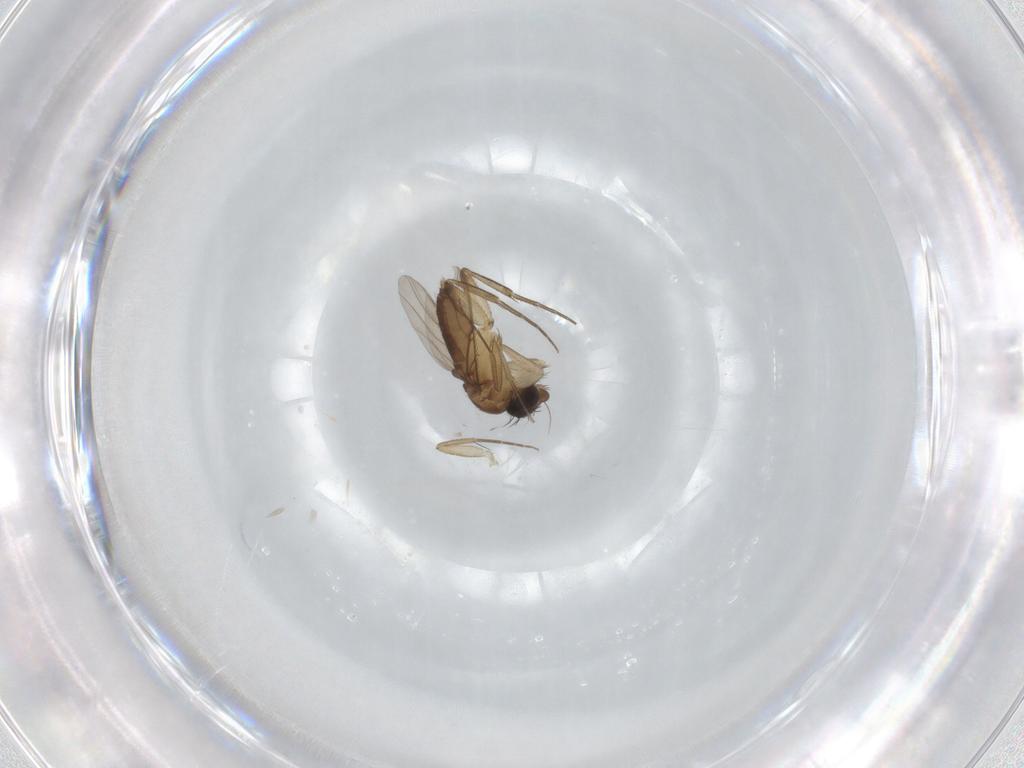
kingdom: Animalia
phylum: Arthropoda
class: Insecta
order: Diptera
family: Phoridae
